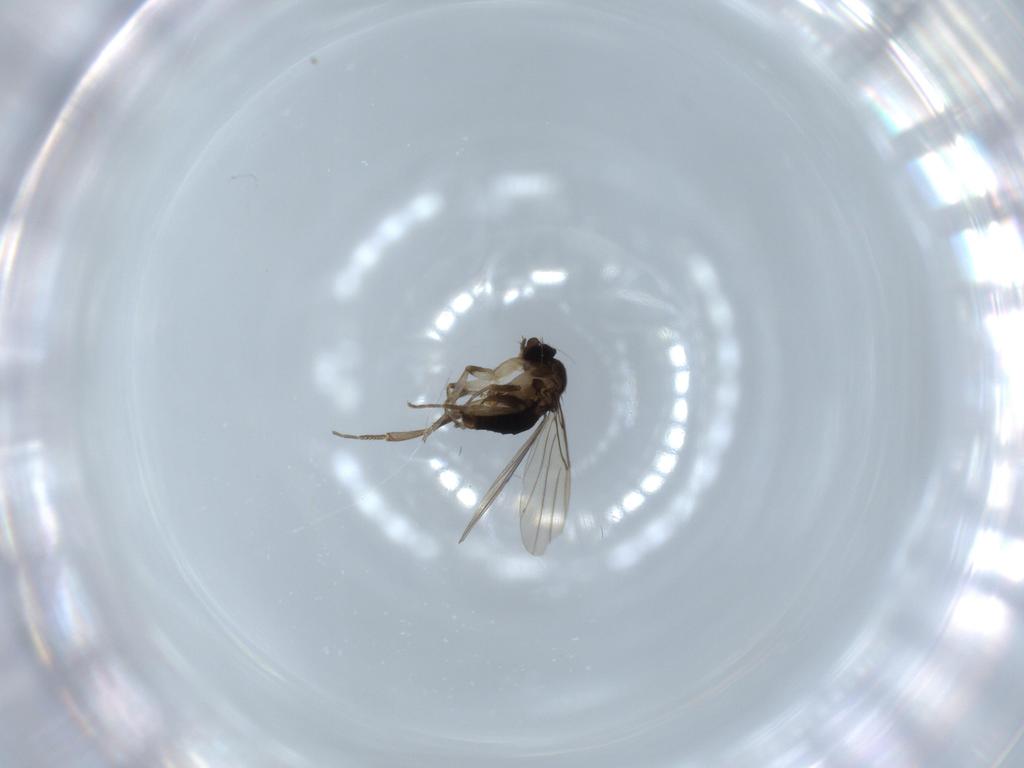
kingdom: Animalia
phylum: Arthropoda
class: Insecta
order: Diptera
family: Phoridae
